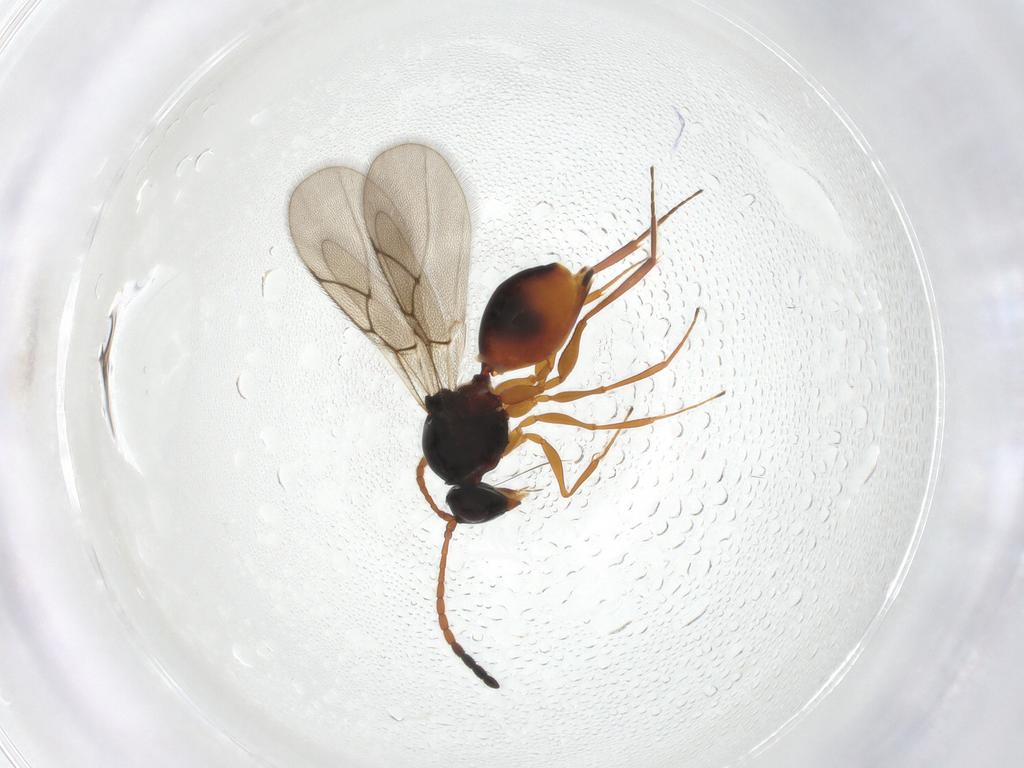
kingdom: Animalia
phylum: Arthropoda
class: Insecta
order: Hymenoptera
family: Figitidae
